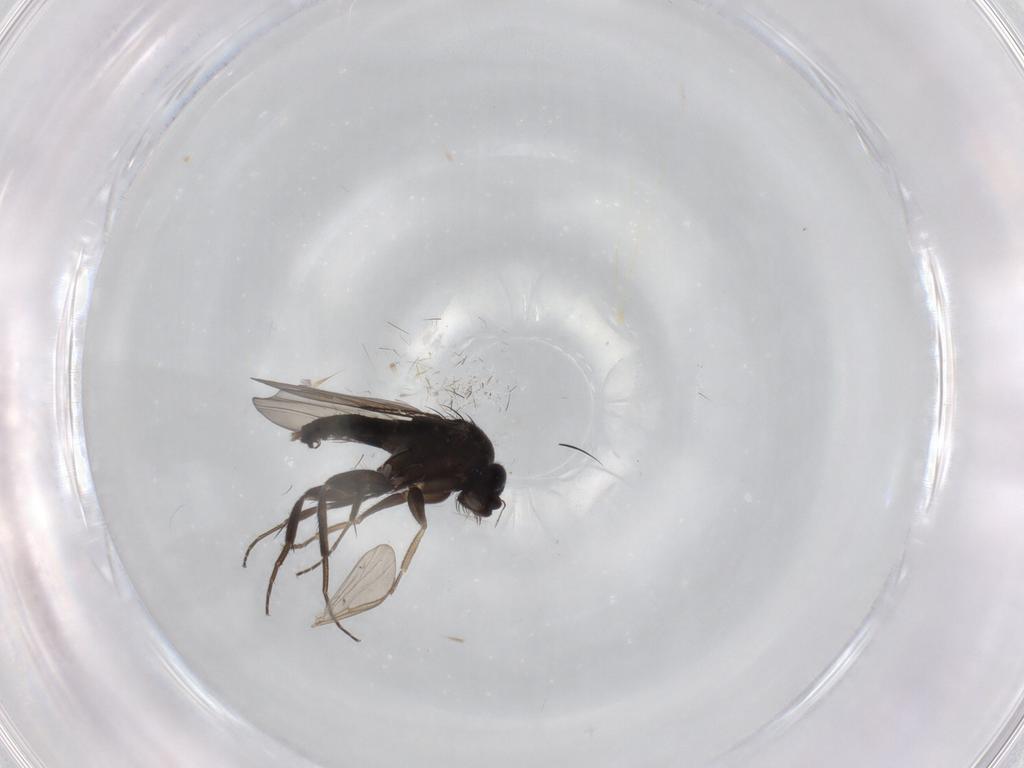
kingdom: Animalia
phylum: Arthropoda
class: Insecta
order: Diptera
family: Phoridae
